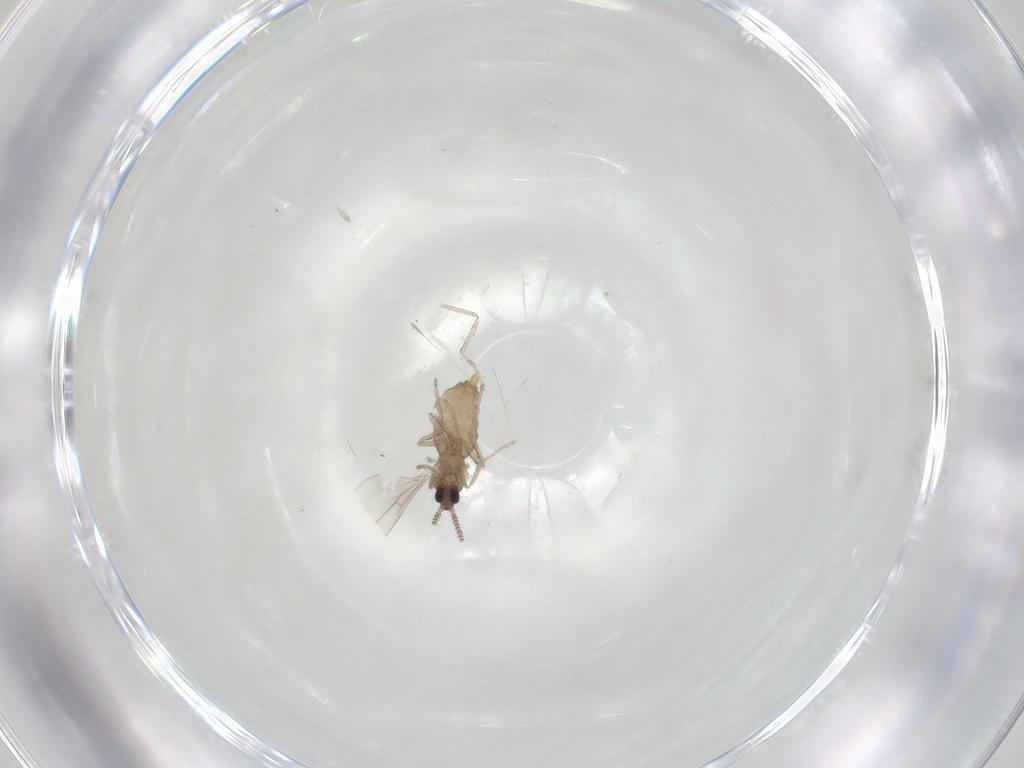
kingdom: Animalia
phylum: Arthropoda
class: Insecta
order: Diptera
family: Cecidomyiidae
